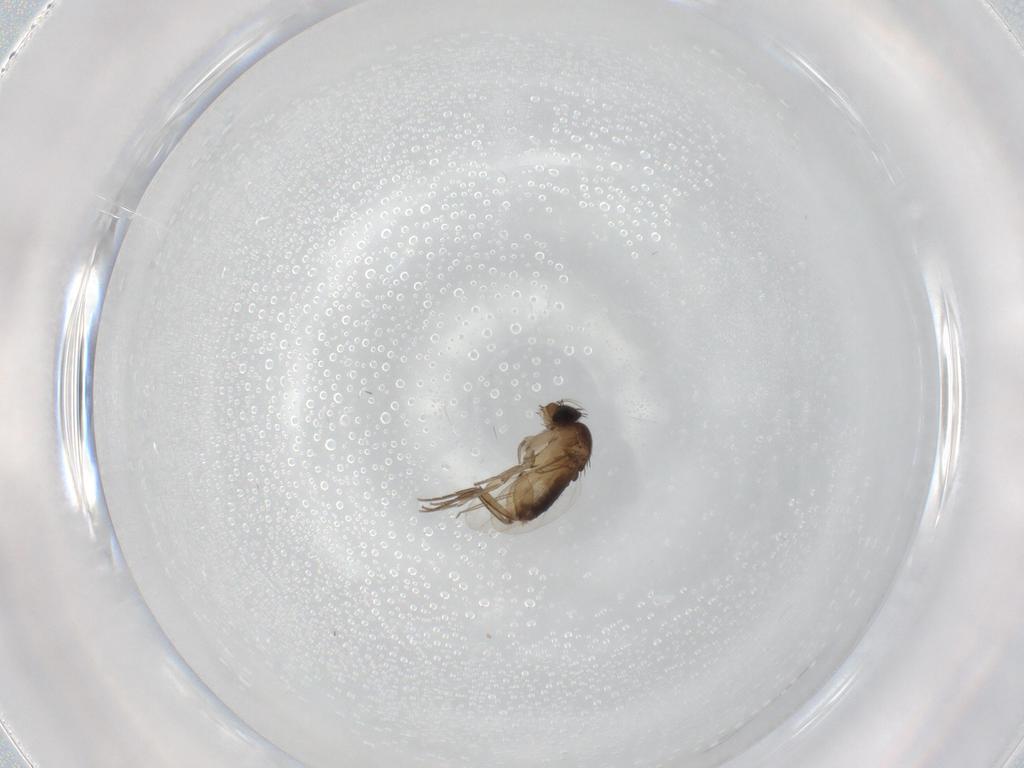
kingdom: Animalia
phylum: Arthropoda
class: Insecta
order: Diptera
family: Phoridae
